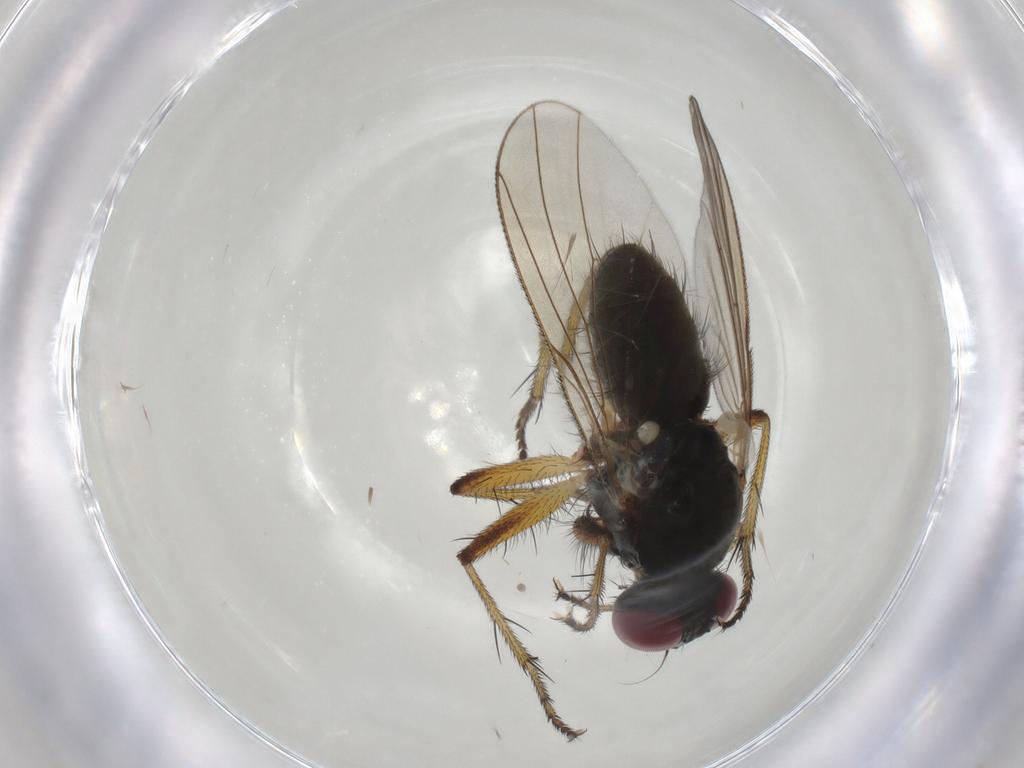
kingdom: Animalia
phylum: Arthropoda
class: Insecta
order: Diptera
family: Muscidae
